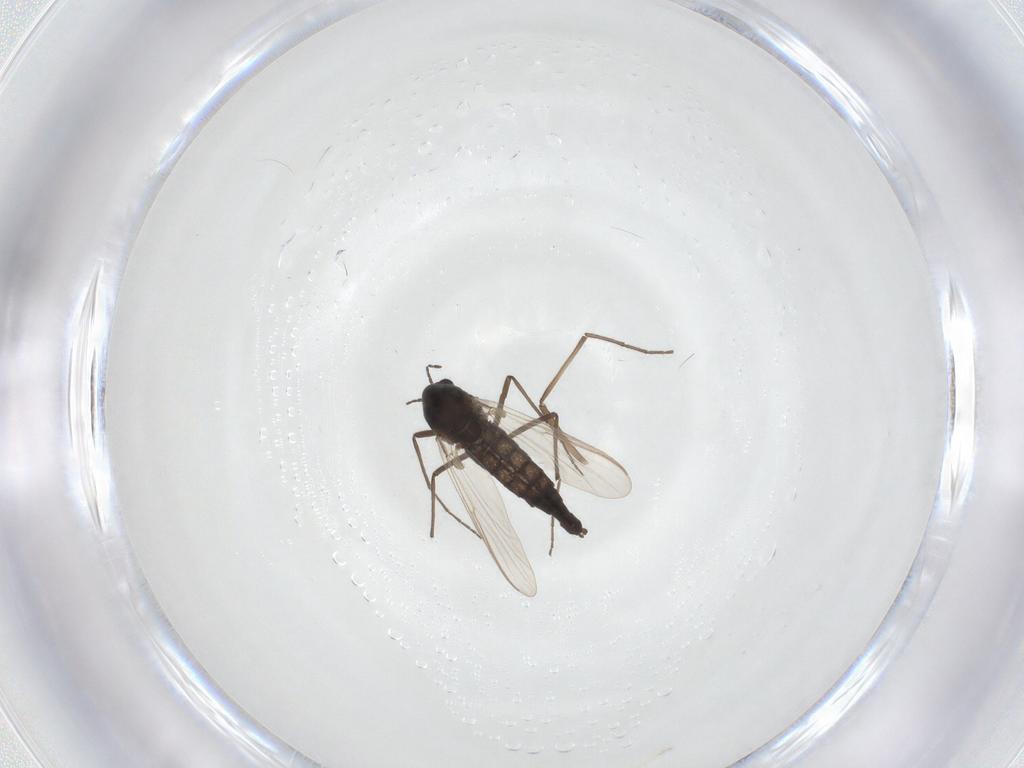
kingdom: Animalia
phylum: Arthropoda
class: Insecta
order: Diptera
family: Chironomidae
